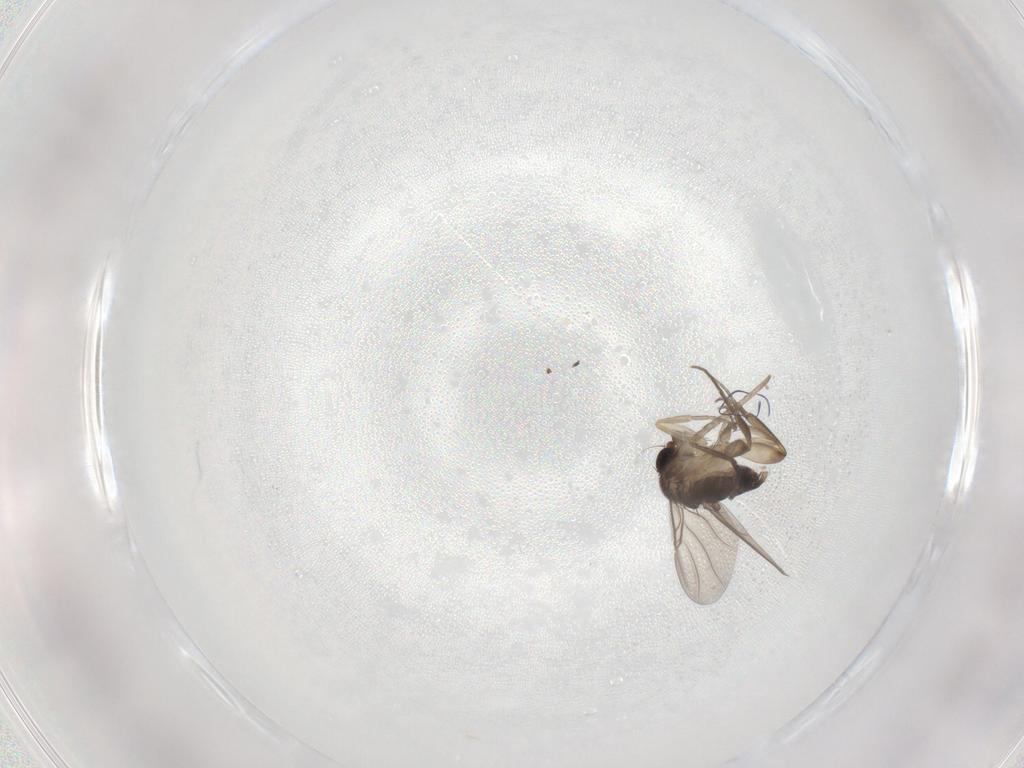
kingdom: Animalia
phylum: Arthropoda
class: Insecta
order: Diptera
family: Phoridae
